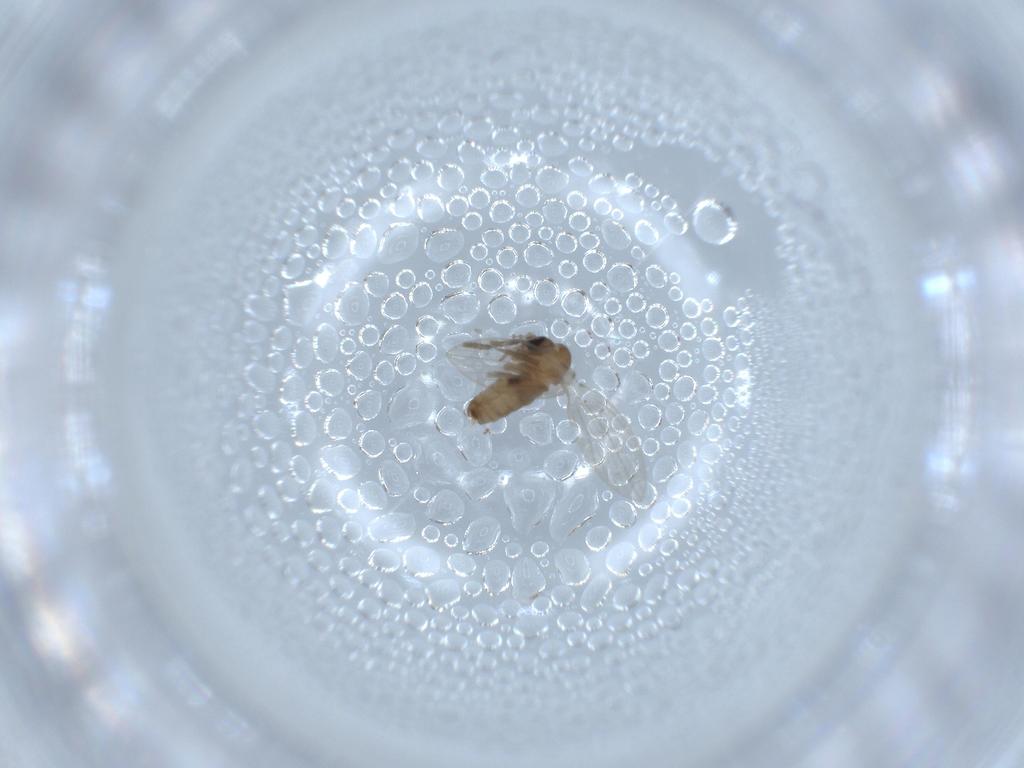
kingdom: Animalia
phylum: Arthropoda
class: Insecta
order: Diptera
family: Psychodidae
